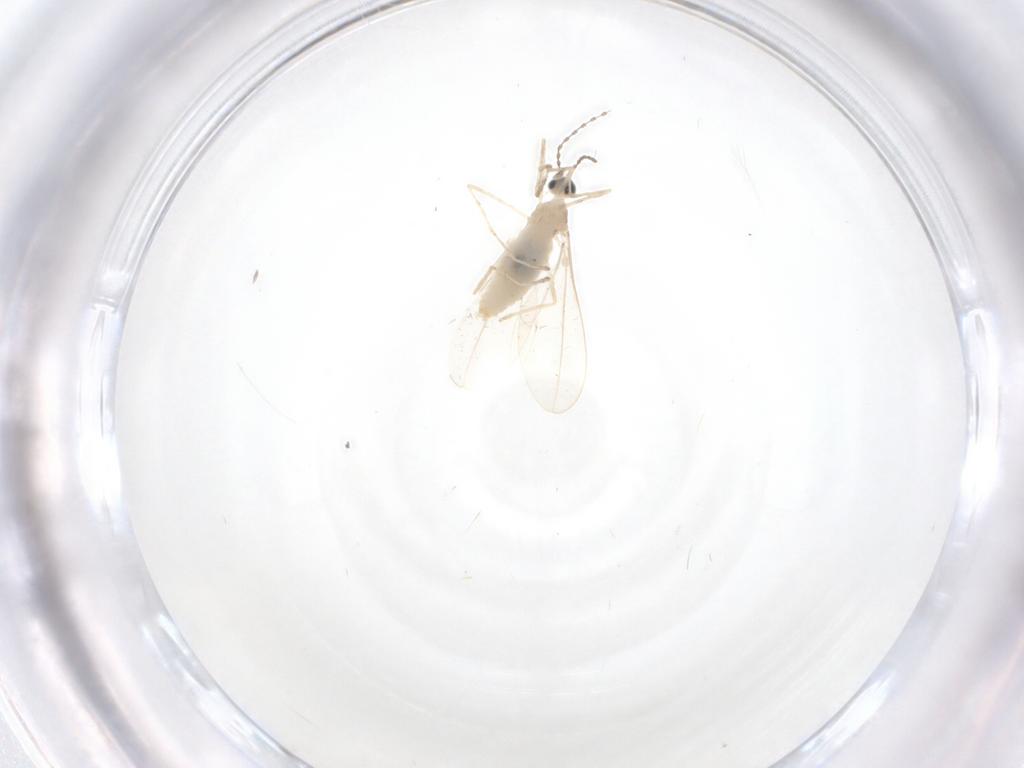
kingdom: Animalia
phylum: Arthropoda
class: Insecta
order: Diptera
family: Cecidomyiidae
